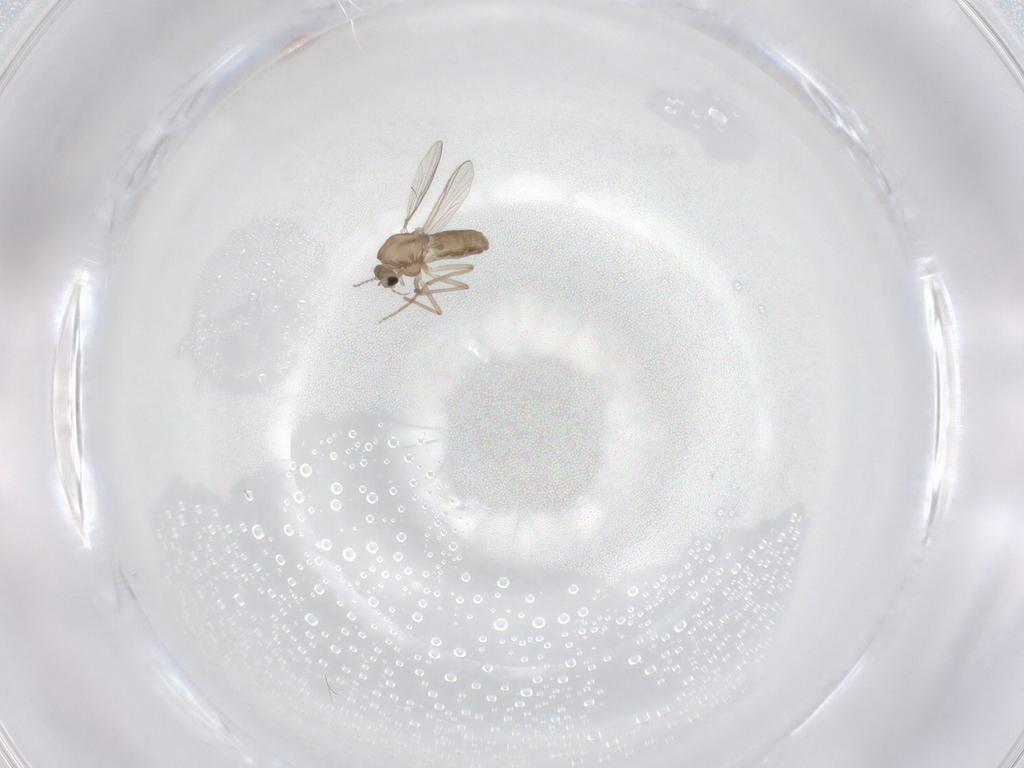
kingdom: Animalia
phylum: Arthropoda
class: Insecta
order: Diptera
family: Chironomidae
